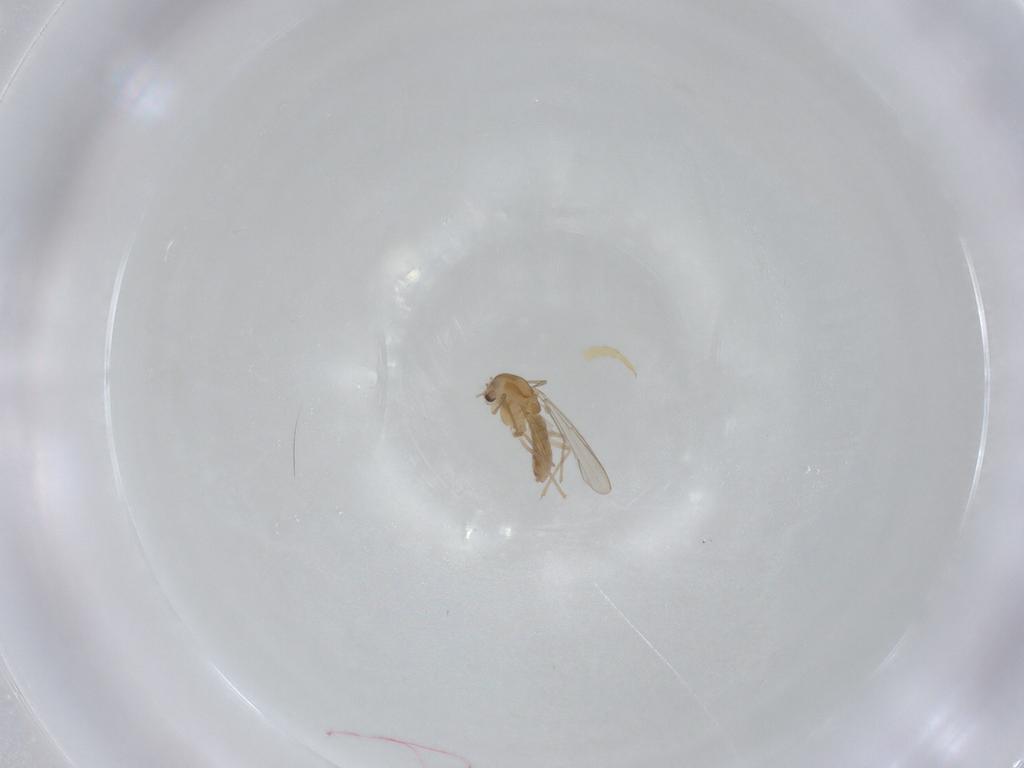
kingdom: Animalia
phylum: Arthropoda
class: Insecta
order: Diptera
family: Cecidomyiidae
